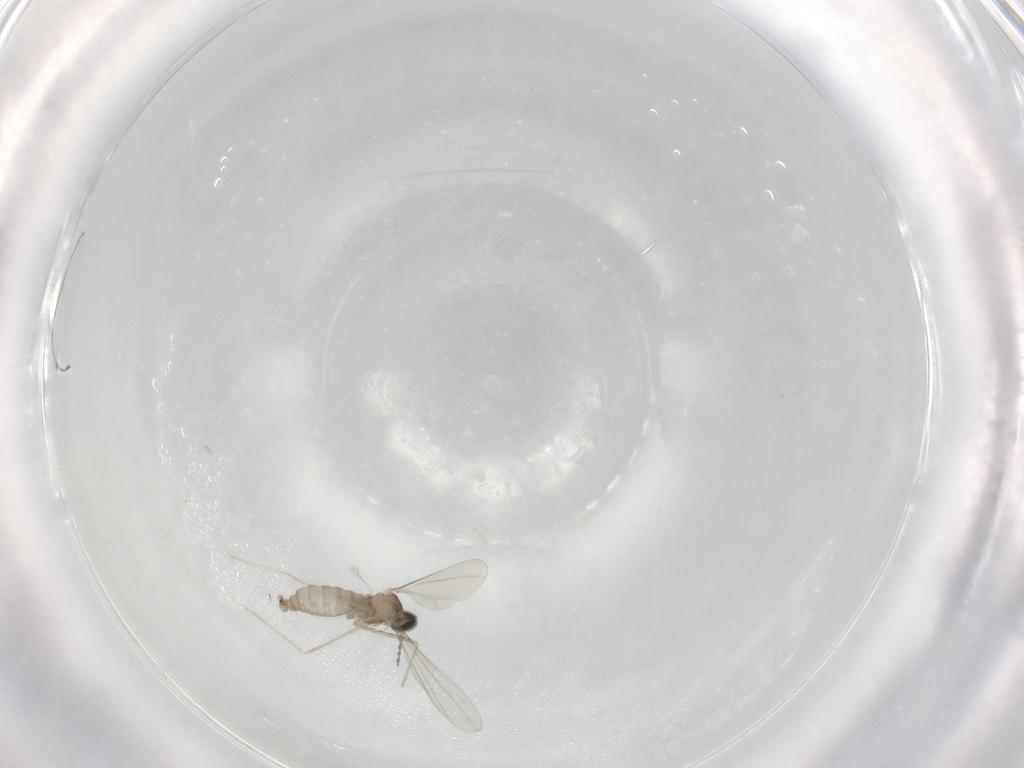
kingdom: Animalia
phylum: Arthropoda
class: Insecta
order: Diptera
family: Cecidomyiidae
